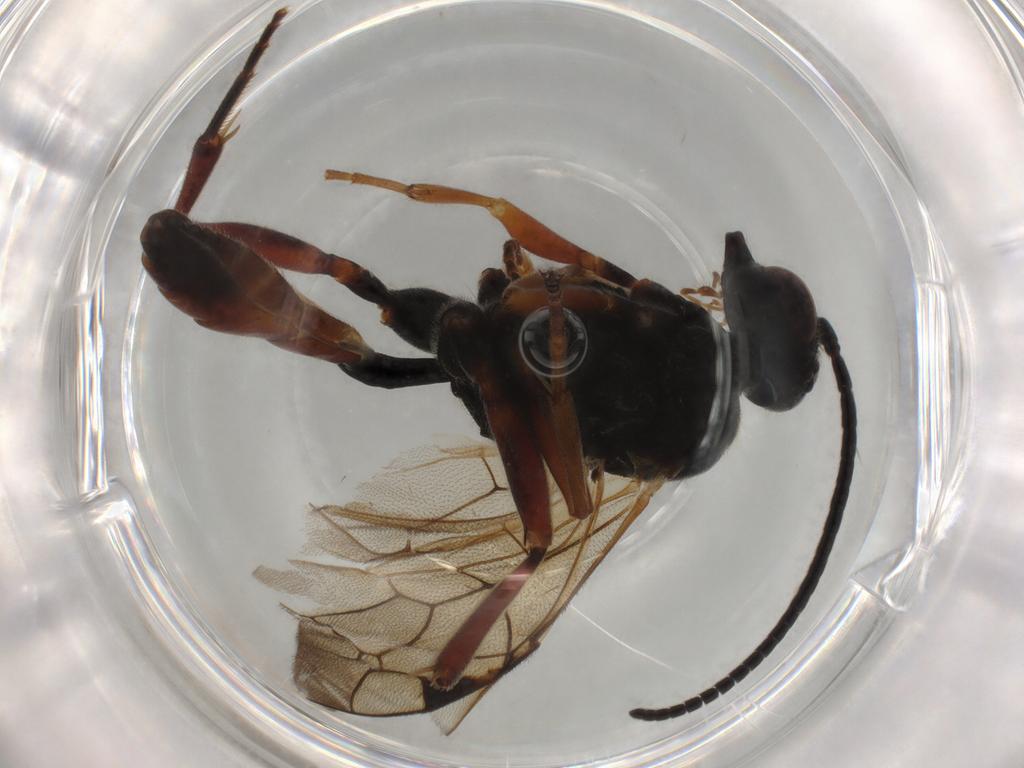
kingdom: Animalia
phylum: Arthropoda
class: Insecta
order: Hymenoptera
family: Ichneumonidae
